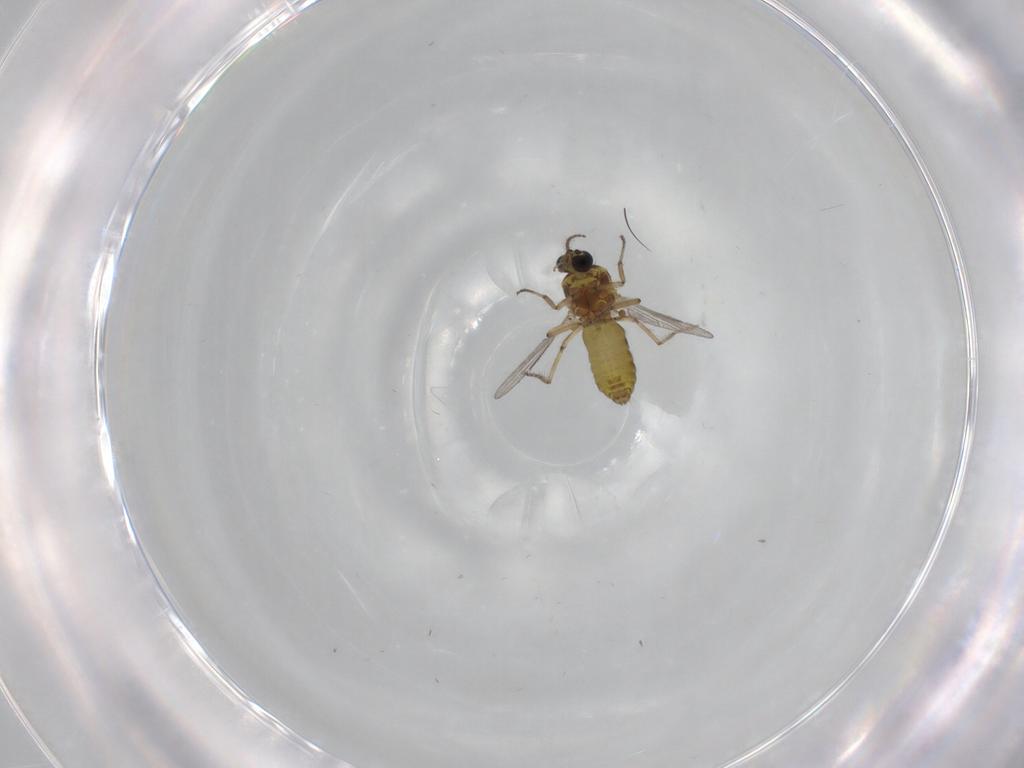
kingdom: Animalia
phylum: Arthropoda
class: Insecta
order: Diptera
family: Ceratopogonidae
